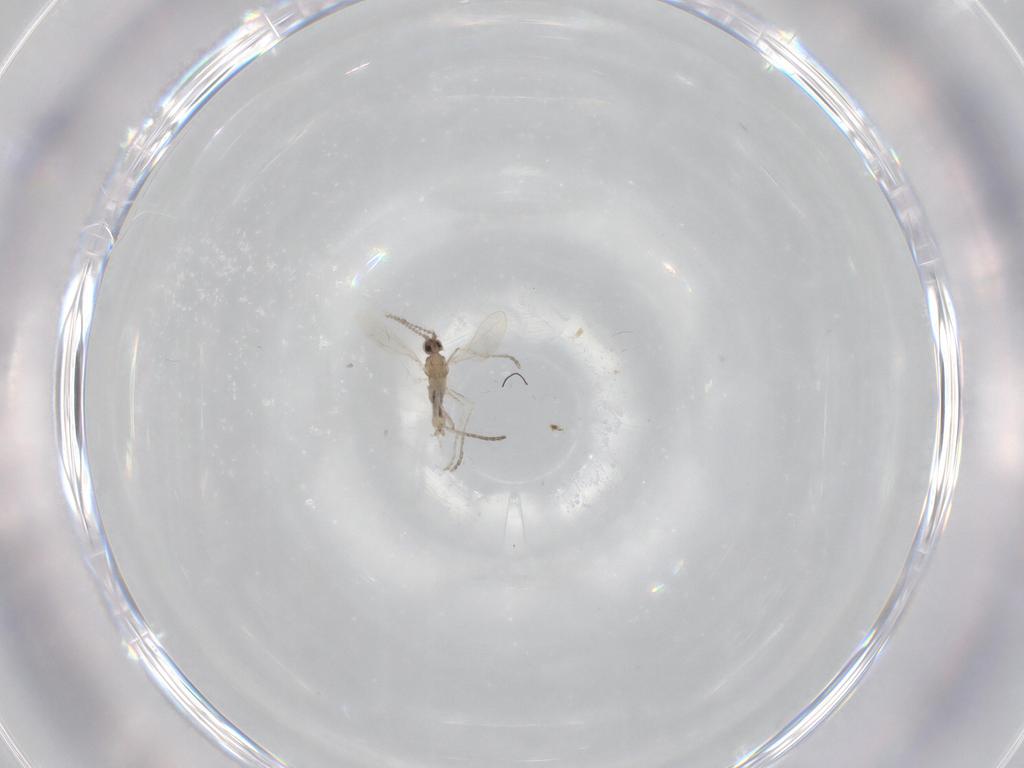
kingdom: Animalia
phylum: Arthropoda
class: Insecta
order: Diptera
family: Cecidomyiidae
